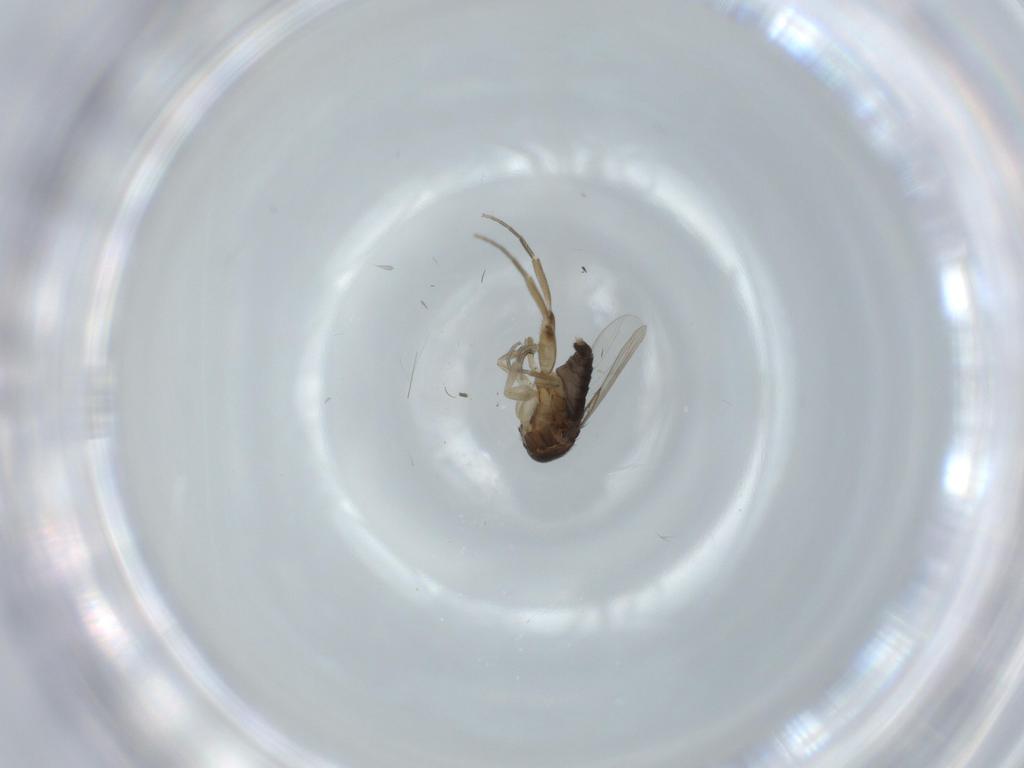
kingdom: Animalia
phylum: Arthropoda
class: Insecta
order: Diptera
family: Phoridae
